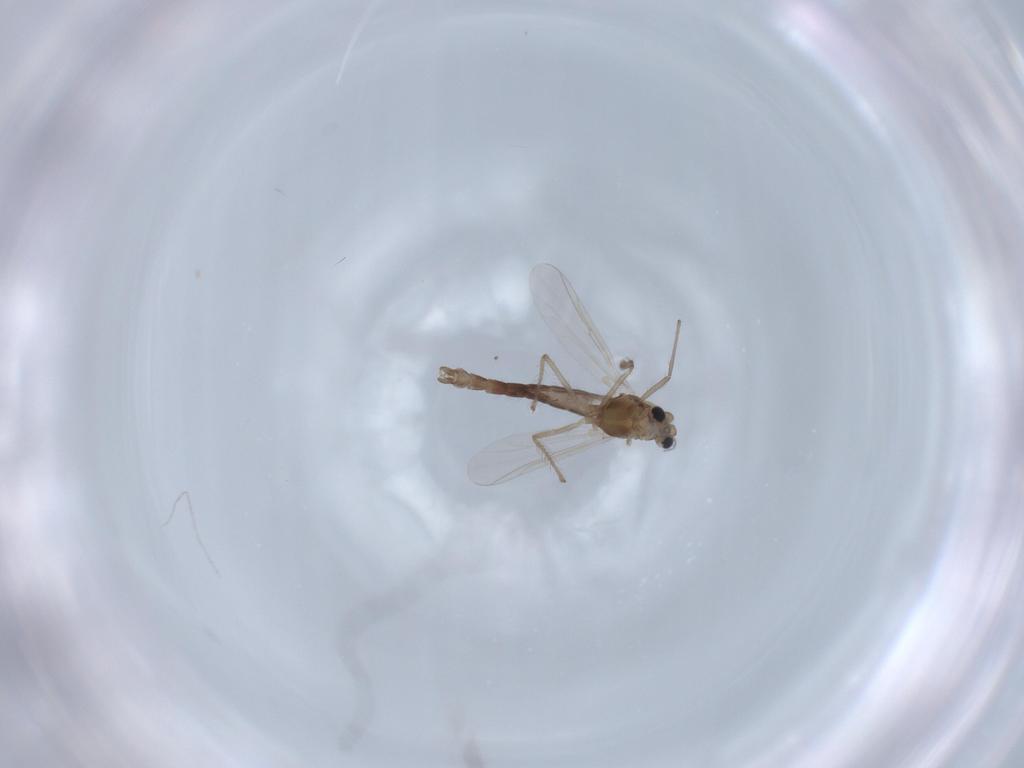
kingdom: Animalia
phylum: Arthropoda
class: Insecta
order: Diptera
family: Chironomidae
